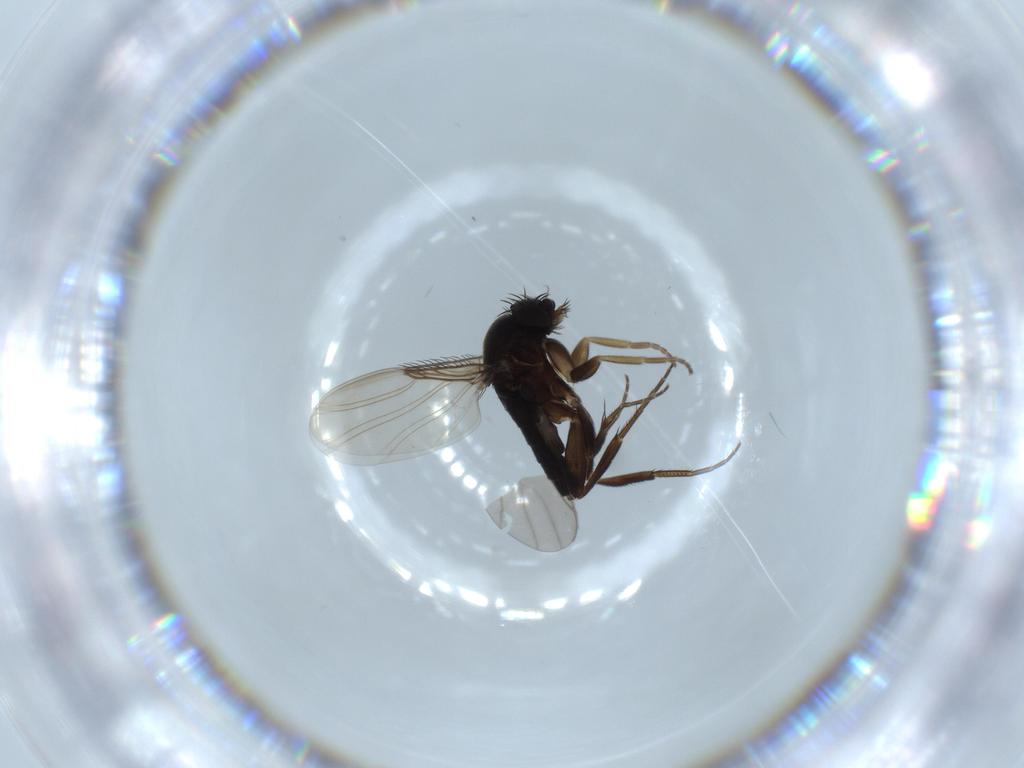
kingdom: Animalia
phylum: Arthropoda
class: Insecta
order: Diptera
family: Phoridae
